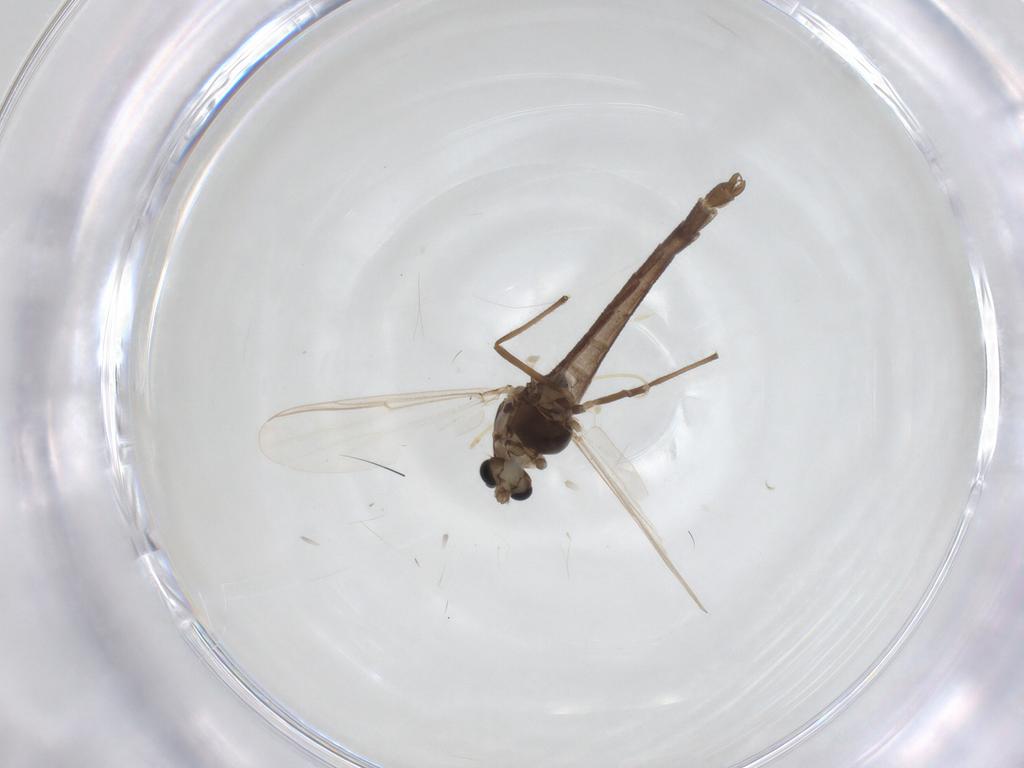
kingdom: Animalia
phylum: Arthropoda
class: Insecta
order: Diptera
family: Chironomidae
